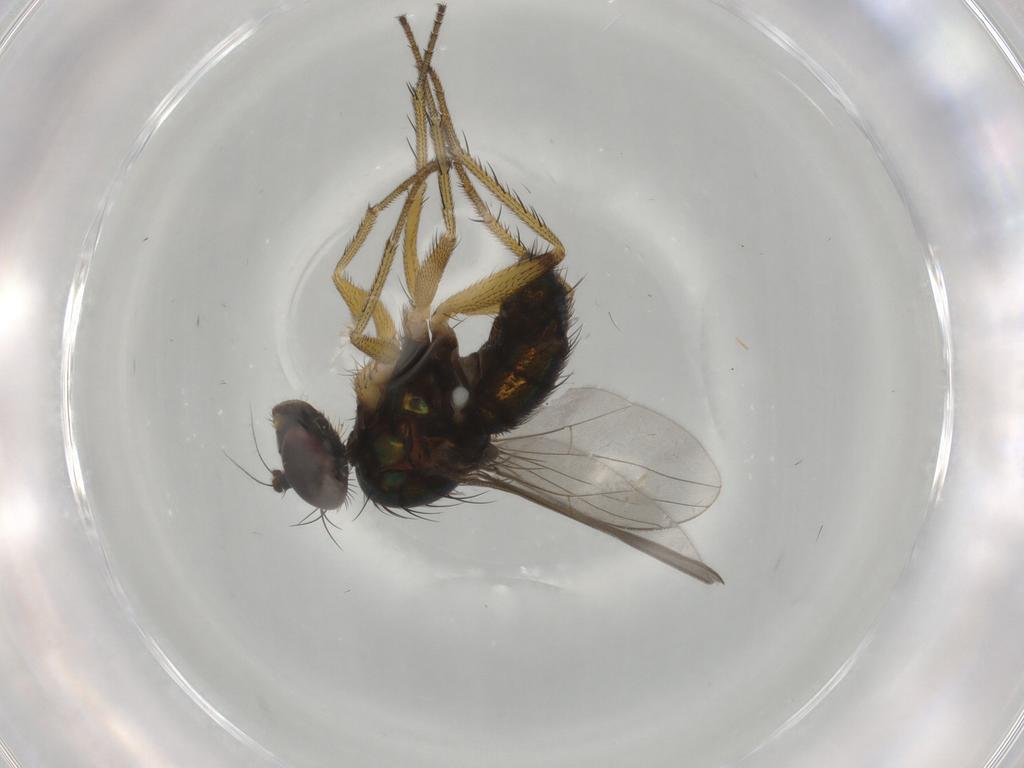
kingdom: Animalia
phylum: Arthropoda
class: Insecta
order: Diptera
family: Dolichopodidae
